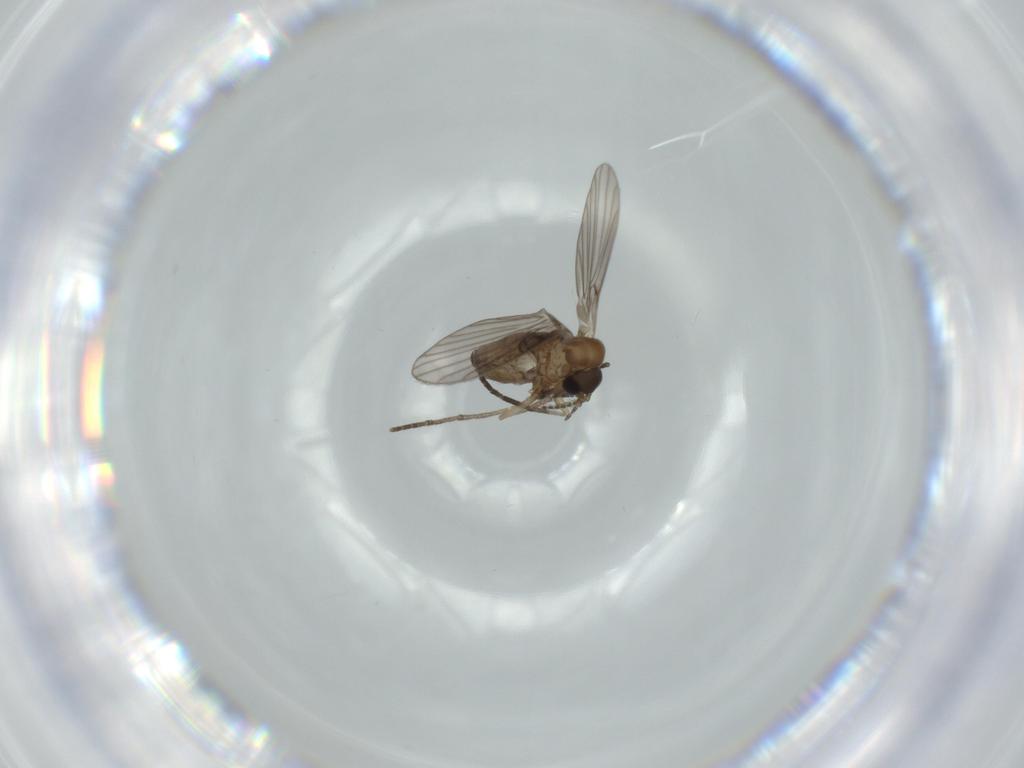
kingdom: Animalia
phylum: Arthropoda
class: Insecta
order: Diptera
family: Psychodidae
